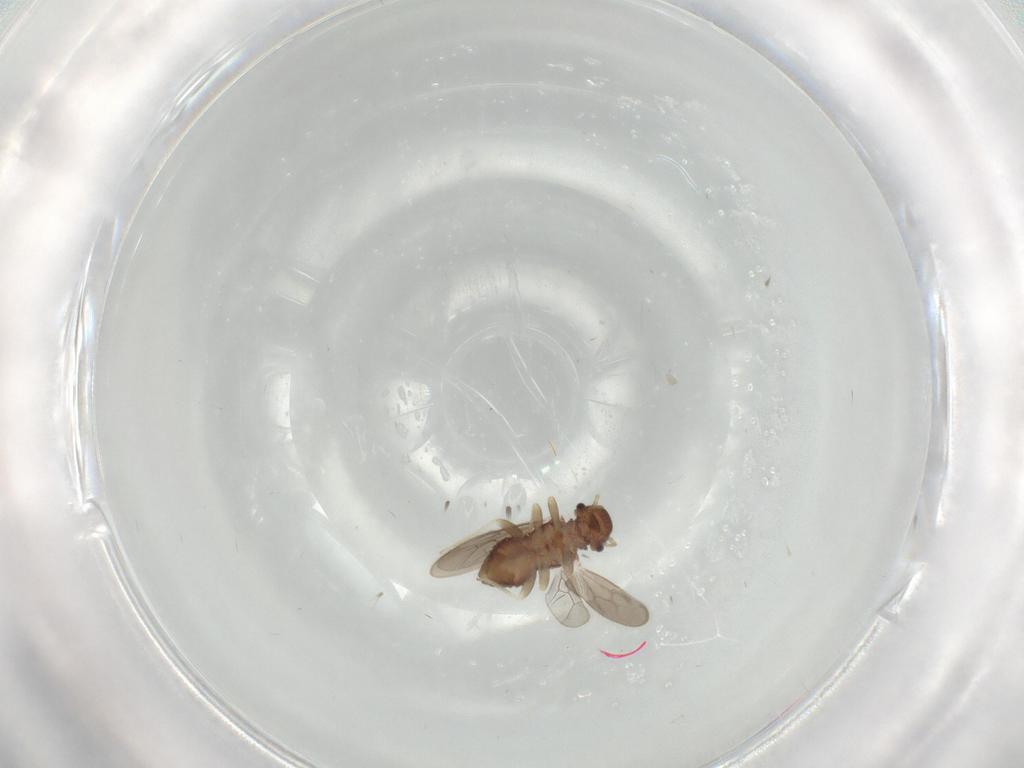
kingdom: Animalia
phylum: Arthropoda
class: Insecta
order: Psocodea
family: Archipsocidae
